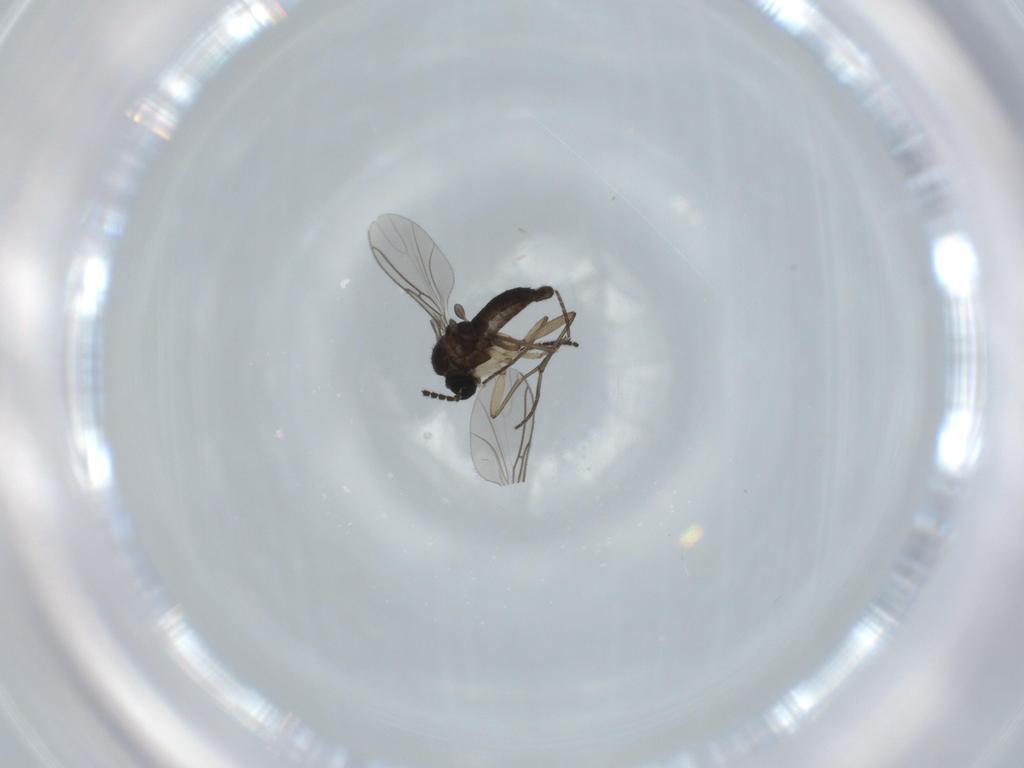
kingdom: Animalia
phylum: Arthropoda
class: Insecta
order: Diptera
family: Sciaridae
